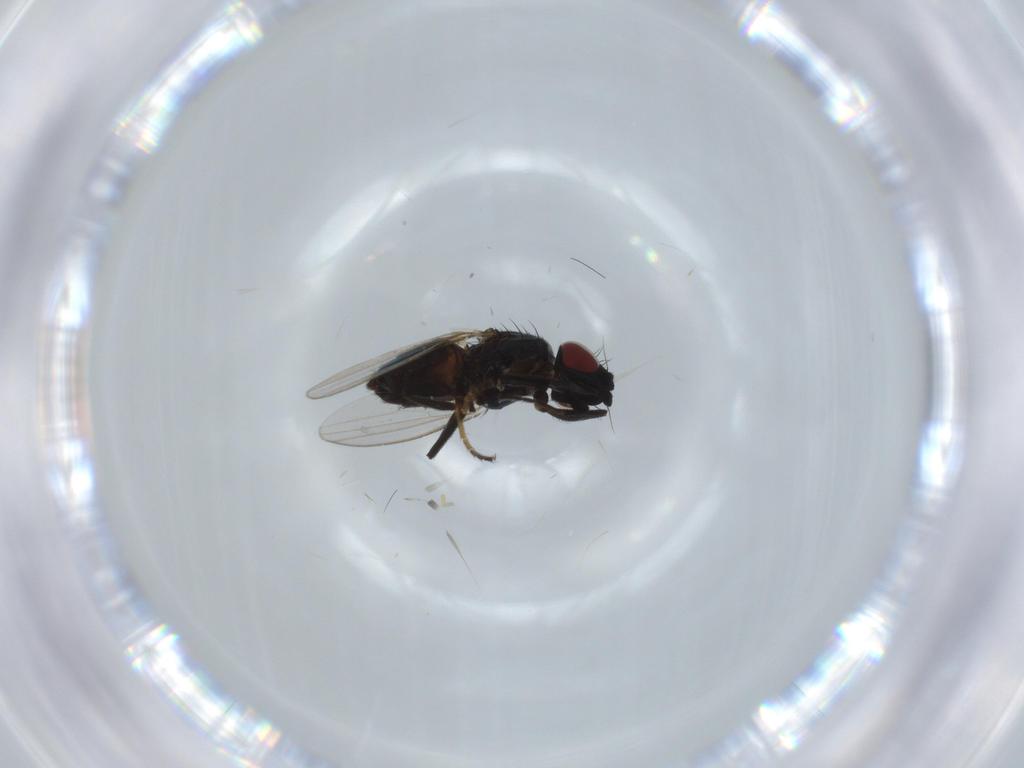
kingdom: Animalia
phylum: Arthropoda
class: Insecta
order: Diptera
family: Milichiidae
